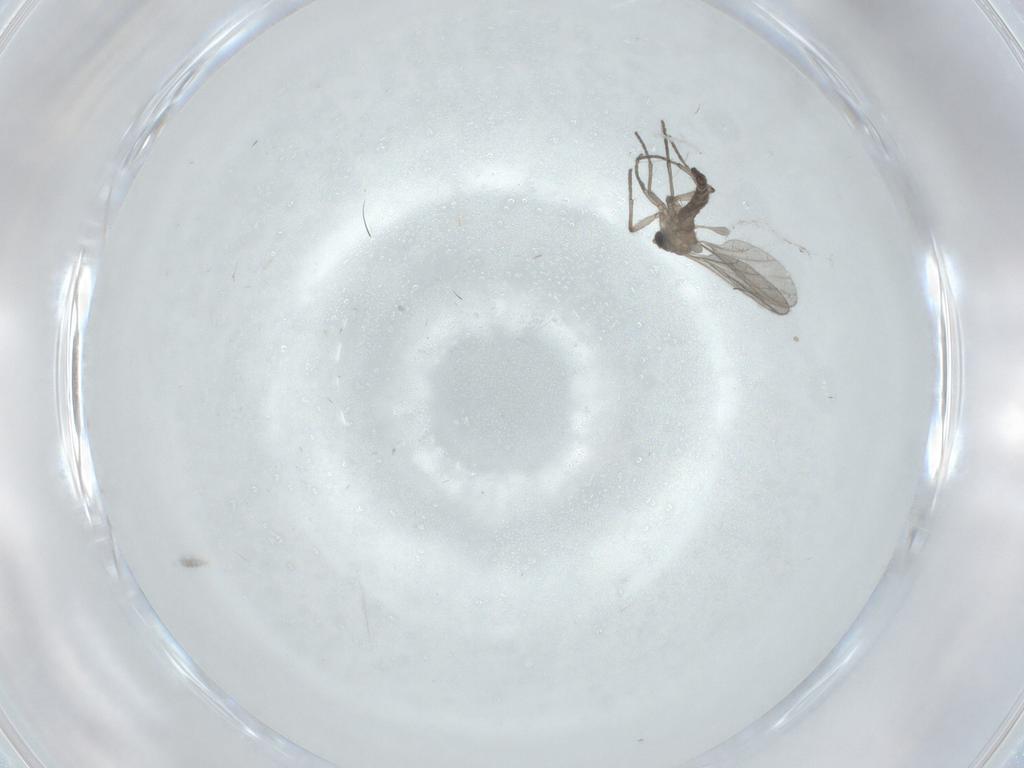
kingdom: Animalia
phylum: Arthropoda
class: Insecta
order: Diptera
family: Sciaridae
